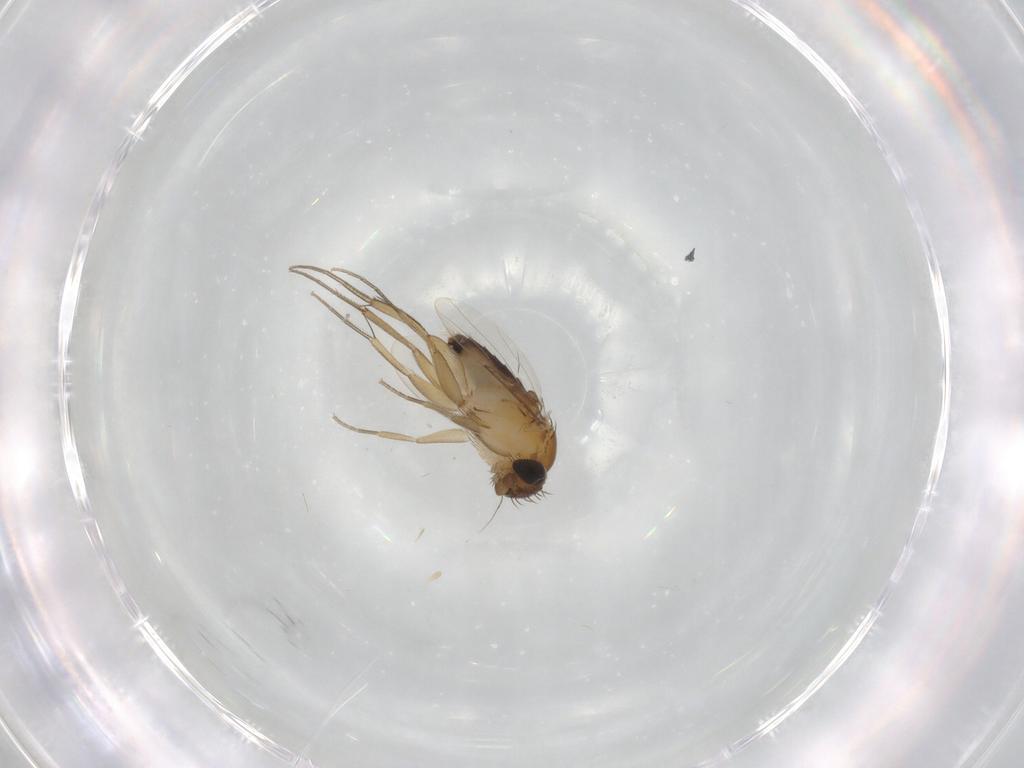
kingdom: Animalia
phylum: Arthropoda
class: Insecta
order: Diptera
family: Phoridae
